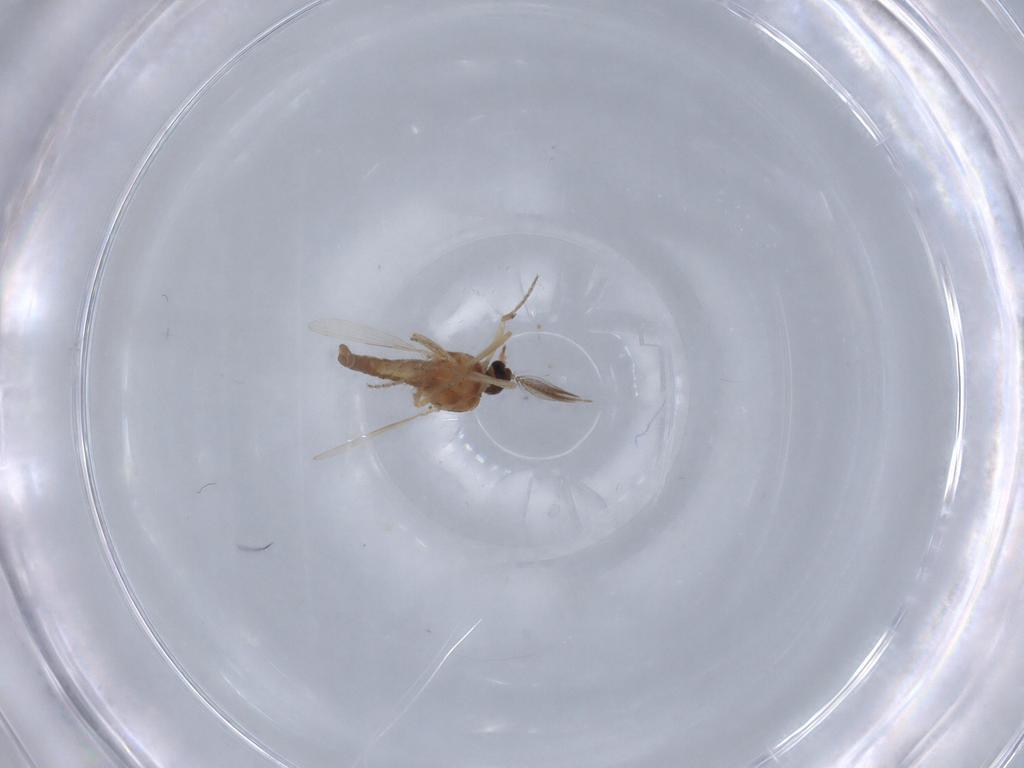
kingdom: Animalia
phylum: Arthropoda
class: Insecta
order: Diptera
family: Ceratopogonidae
